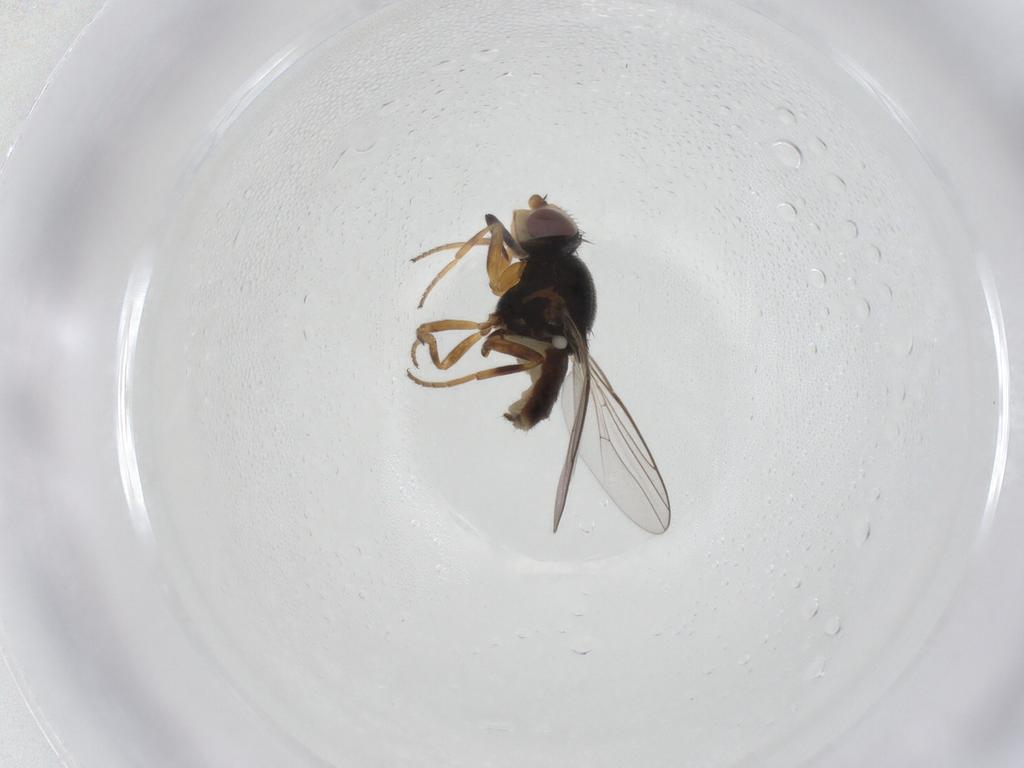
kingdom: Animalia
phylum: Arthropoda
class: Insecta
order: Diptera
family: Chloropidae
